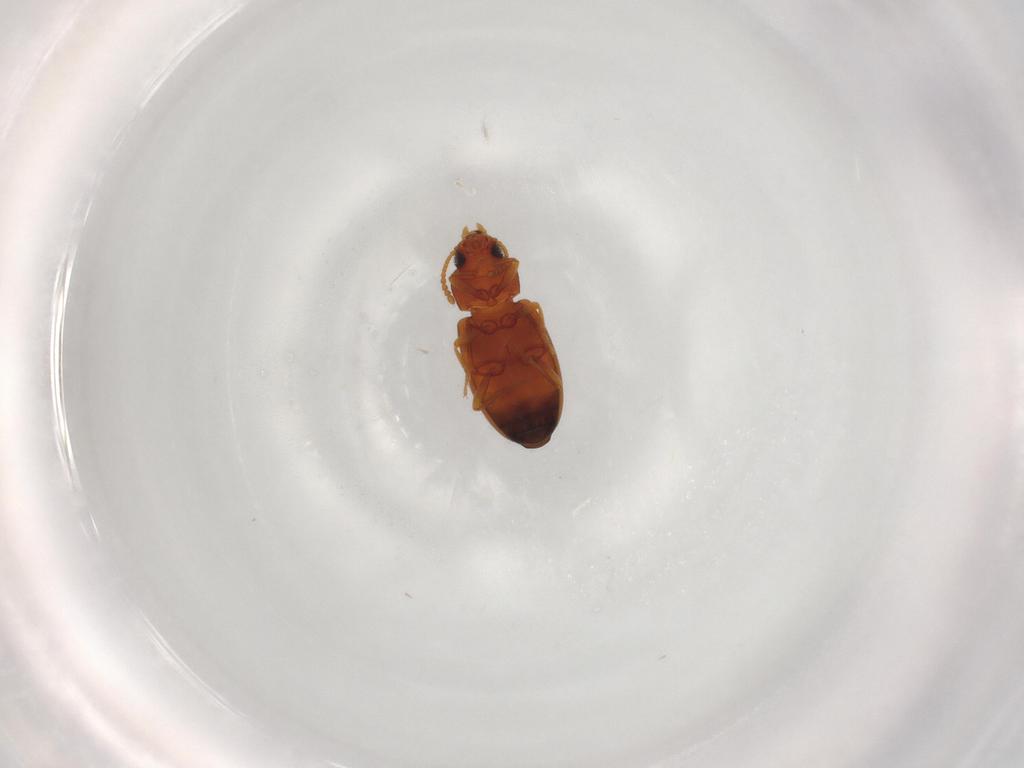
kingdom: Animalia
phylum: Arthropoda
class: Insecta
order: Coleoptera
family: Tenebrionidae
